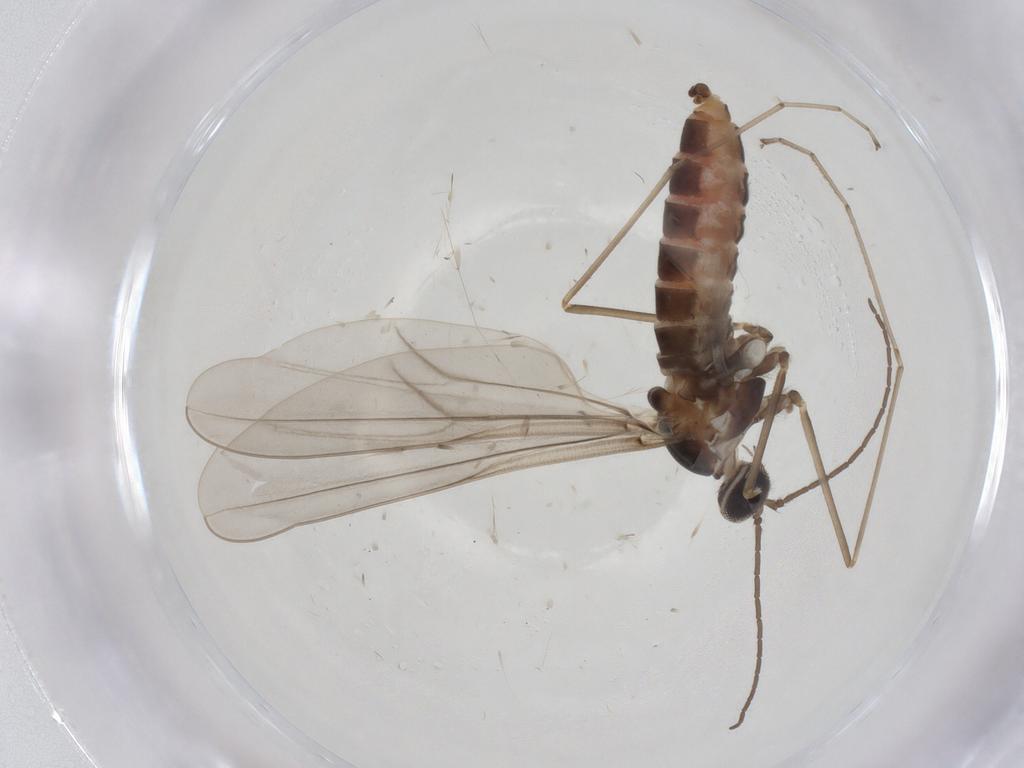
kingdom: Animalia
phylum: Arthropoda
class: Insecta
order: Diptera
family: Cecidomyiidae
